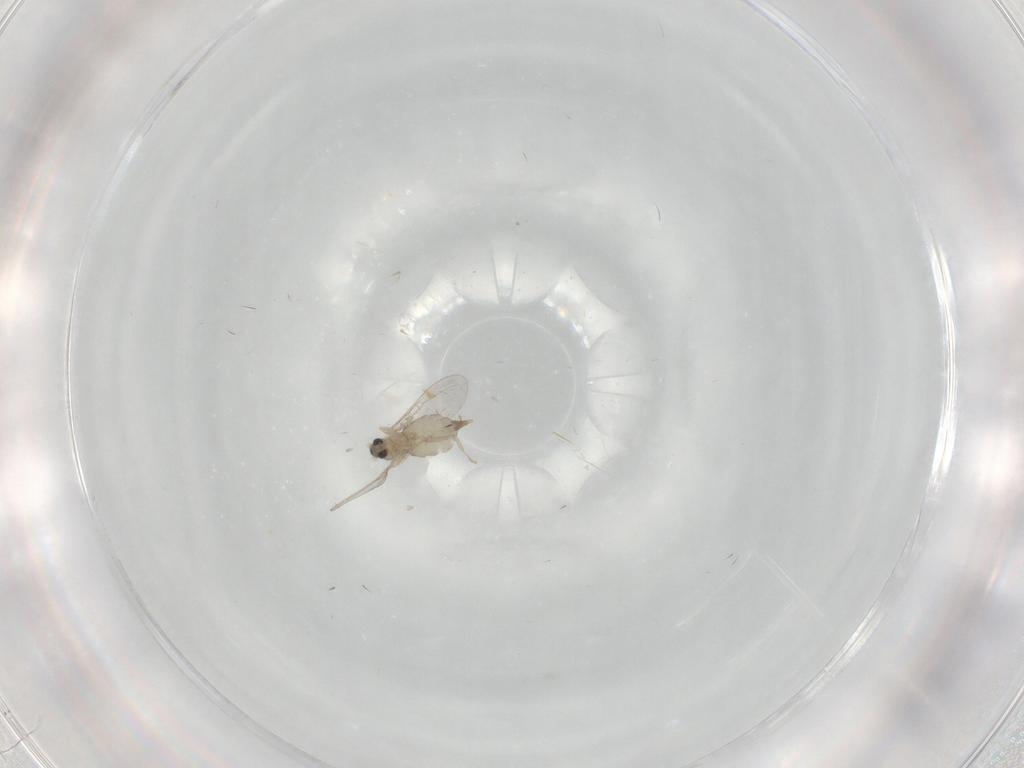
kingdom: Animalia
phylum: Arthropoda
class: Insecta
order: Diptera
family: Cecidomyiidae
